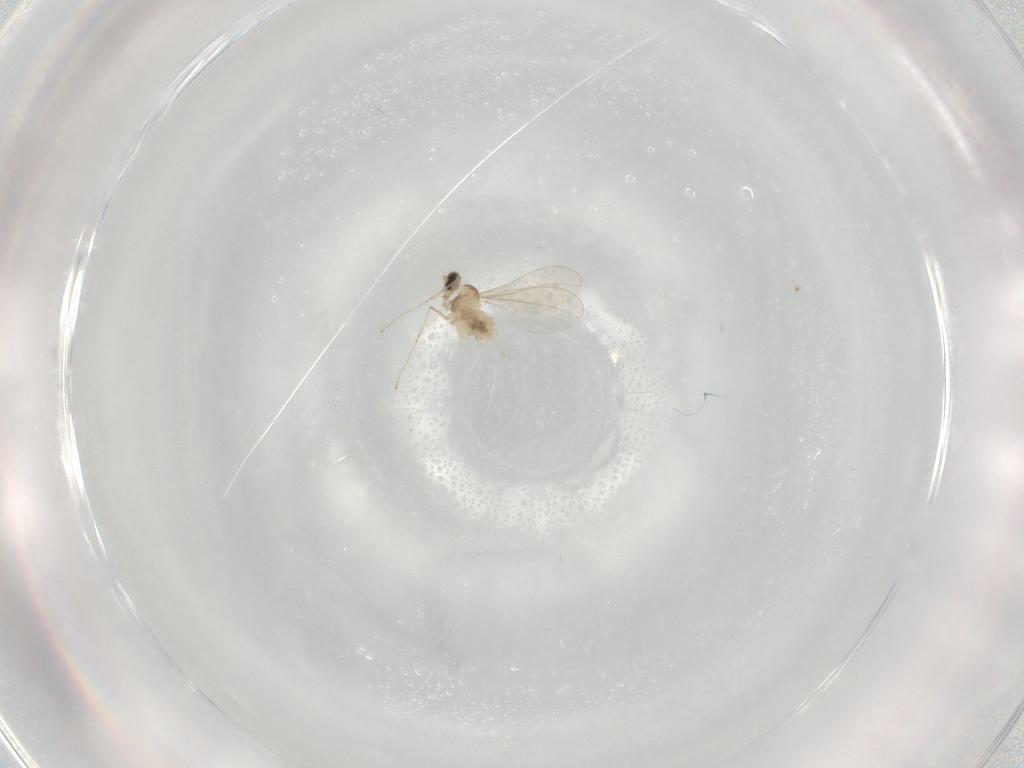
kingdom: Animalia
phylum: Arthropoda
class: Insecta
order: Diptera
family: Cecidomyiidae
